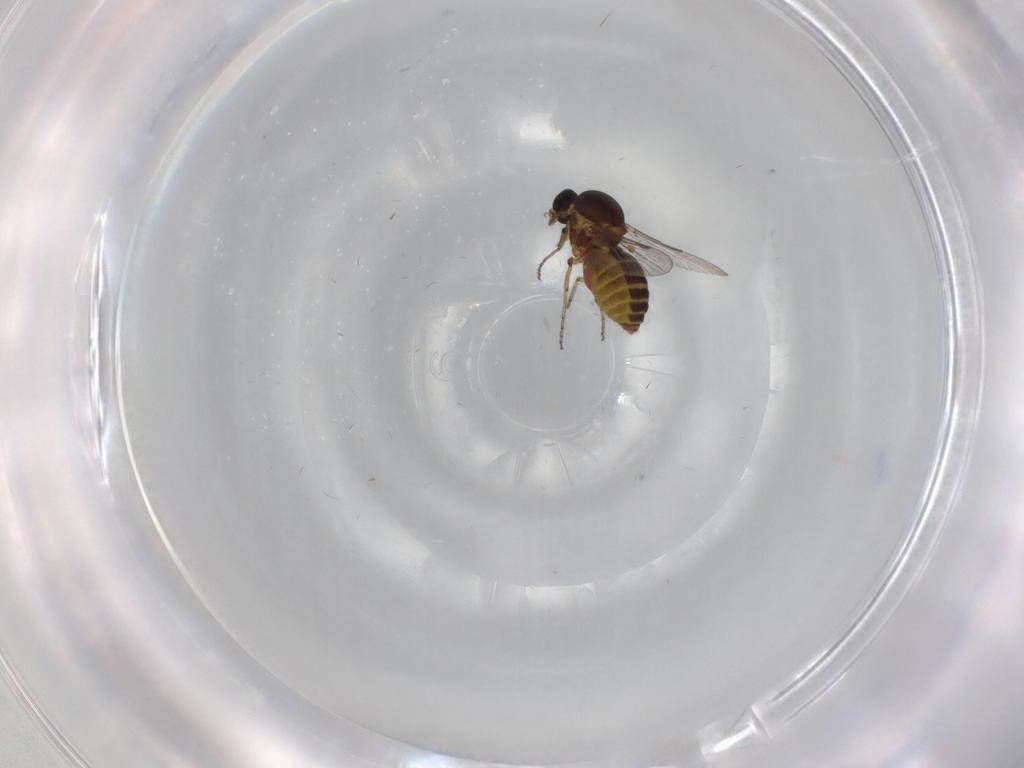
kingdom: Animalia
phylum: Arthropoda
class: Insecta
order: Diptera
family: Ceratopogonidae
